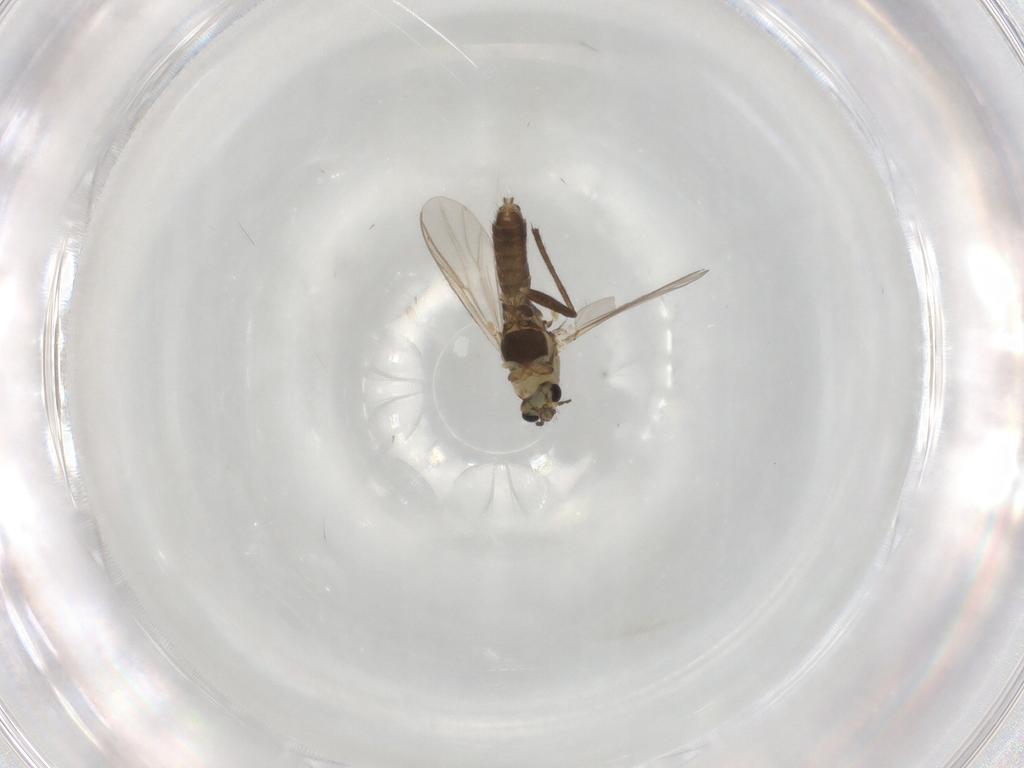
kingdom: Animalia
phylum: Arthropoda
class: Insecta
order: Diptera
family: Chironomidae
